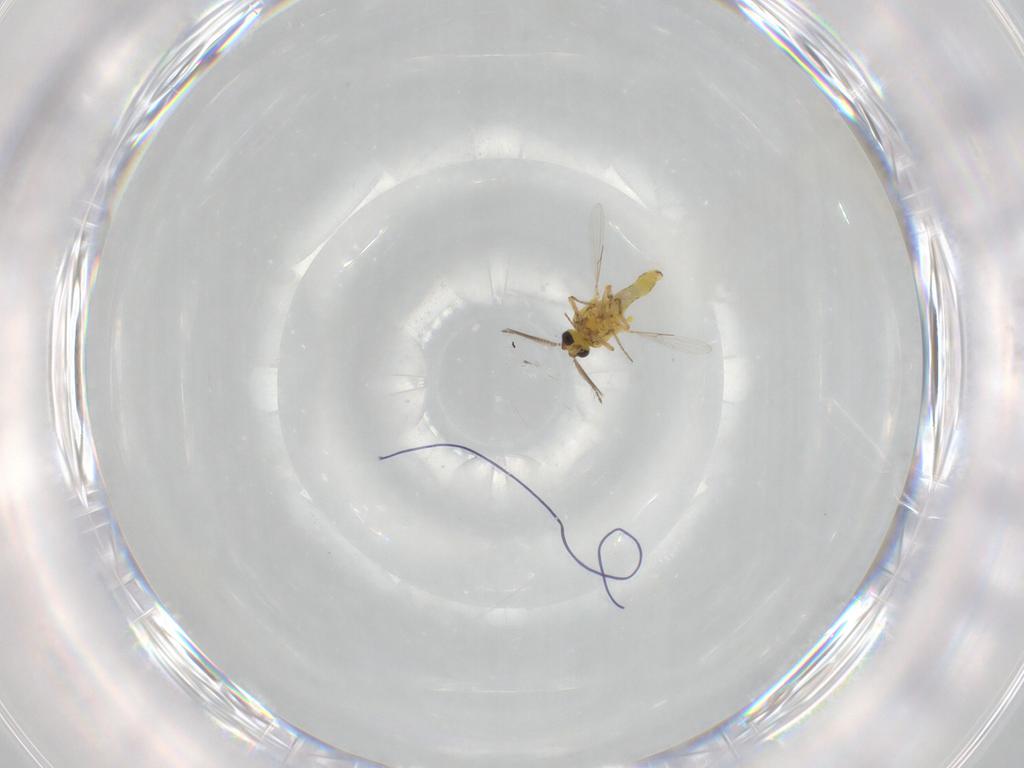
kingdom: Animalia
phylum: Arthropoda
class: Insecta
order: Diptera
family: Ceratopogonidae
